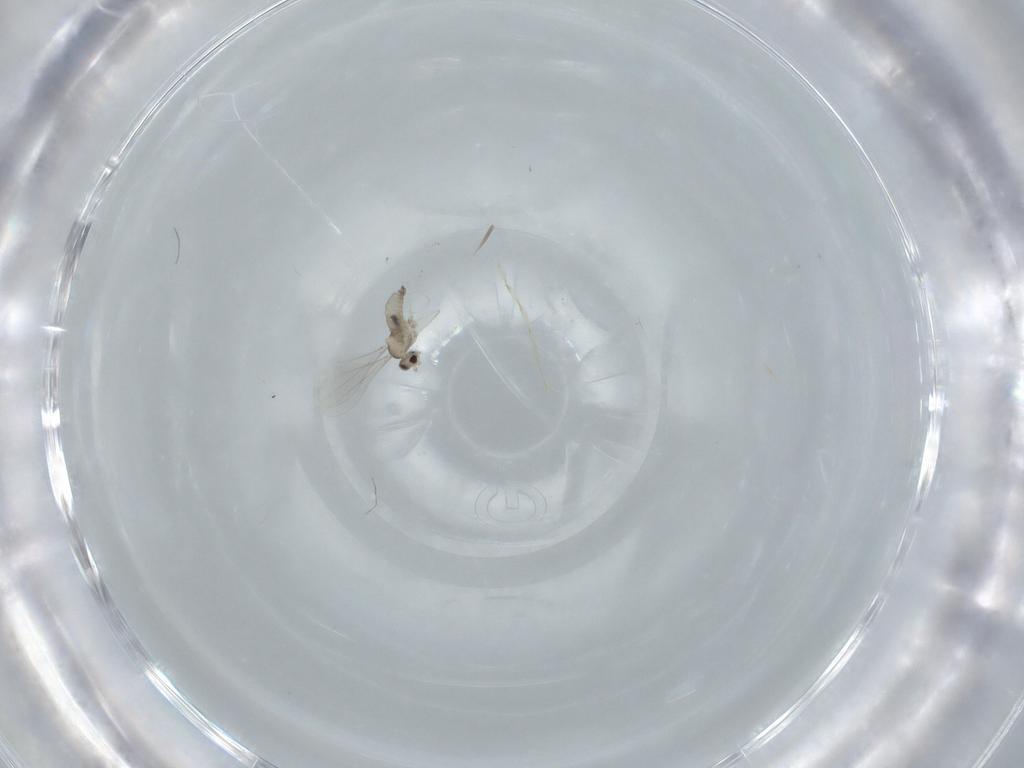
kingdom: Animalia
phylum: Arthropoda
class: Insecta
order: Diptera
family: Cecidomyiidae
